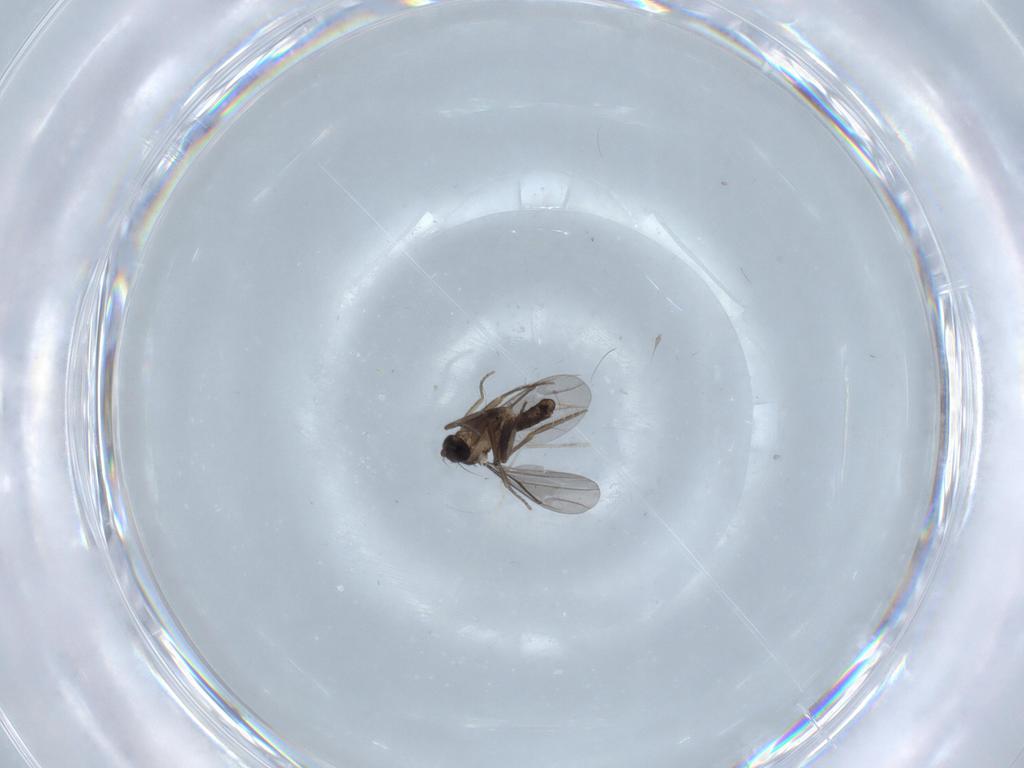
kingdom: Animalia
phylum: Arthropoda
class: Insecta
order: Diptera
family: Cecidomyiidae
